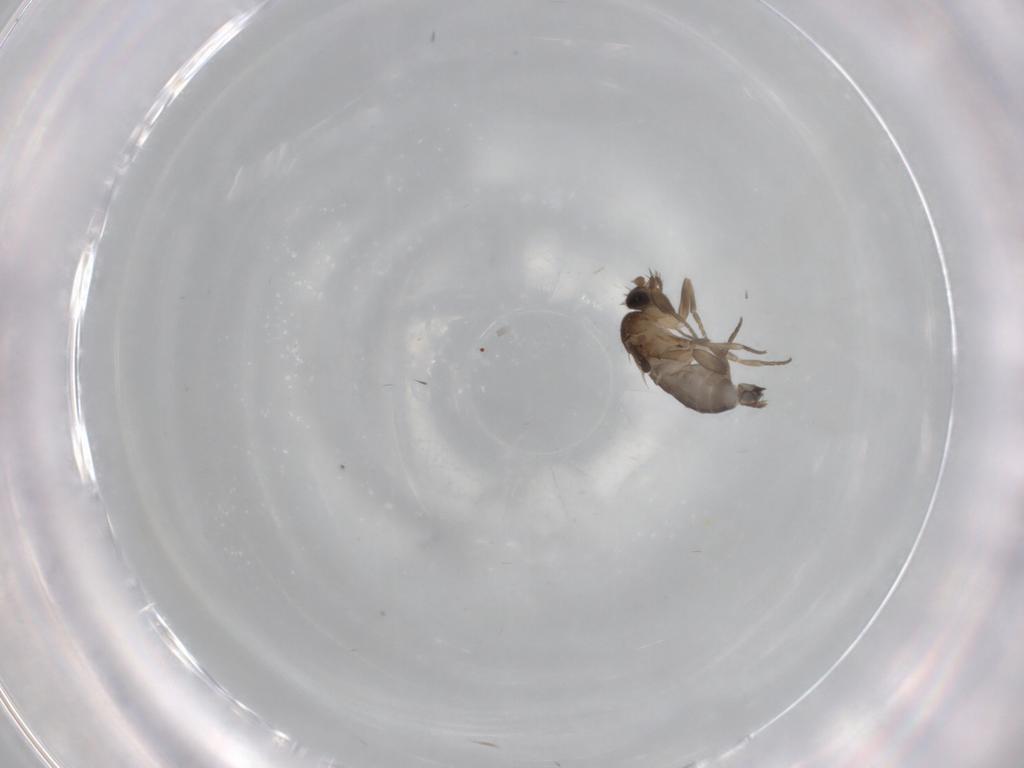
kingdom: Animalia
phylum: Arthropoda
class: Insecta
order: Diptera
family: Phoridae
